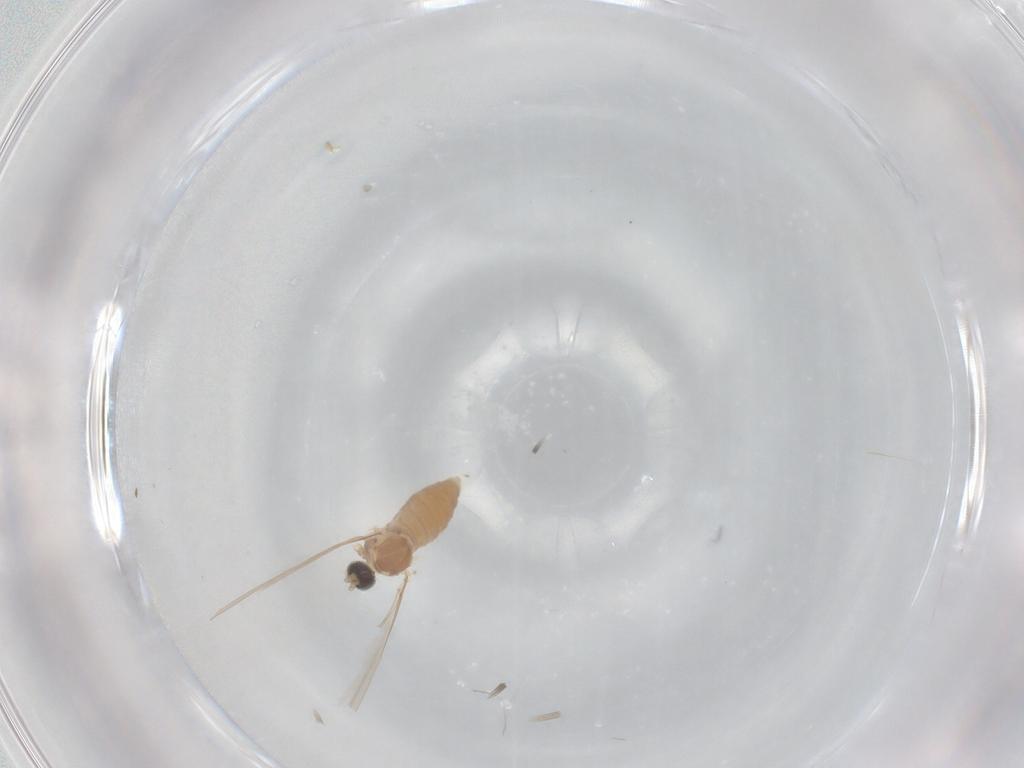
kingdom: Animalia
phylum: Arthropoda
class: Insecta
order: Diptera
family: Cecidomyiidae
